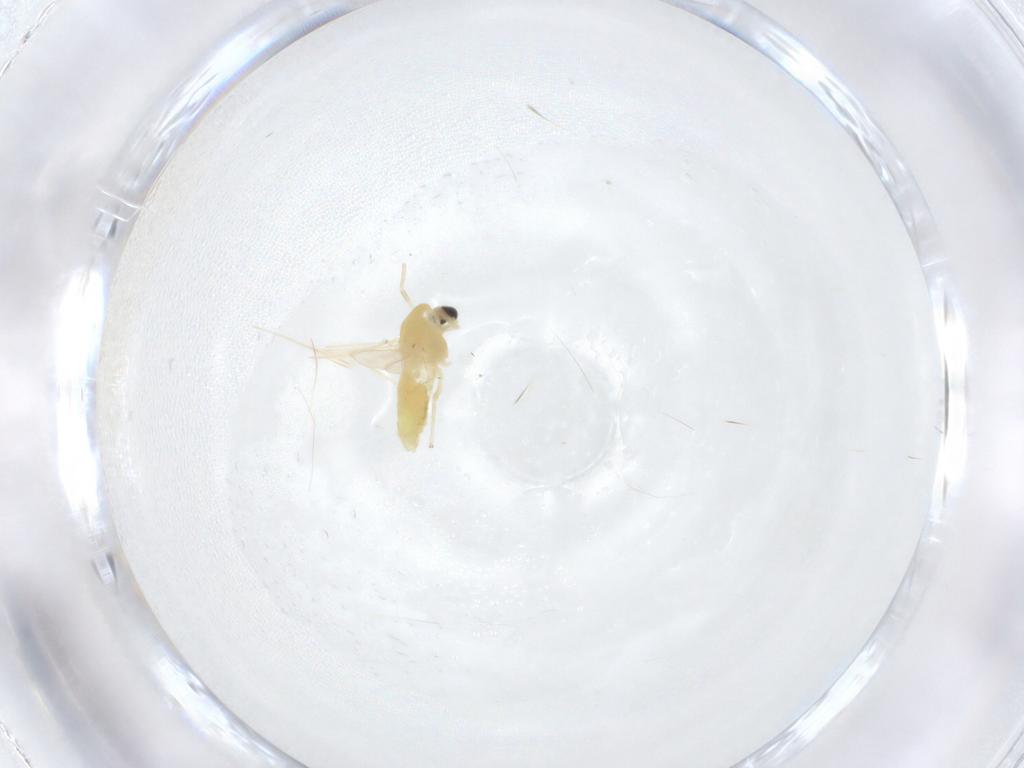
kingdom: Animalia
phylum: Arthropoda
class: Insecta
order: Diptera
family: Chironomidae
